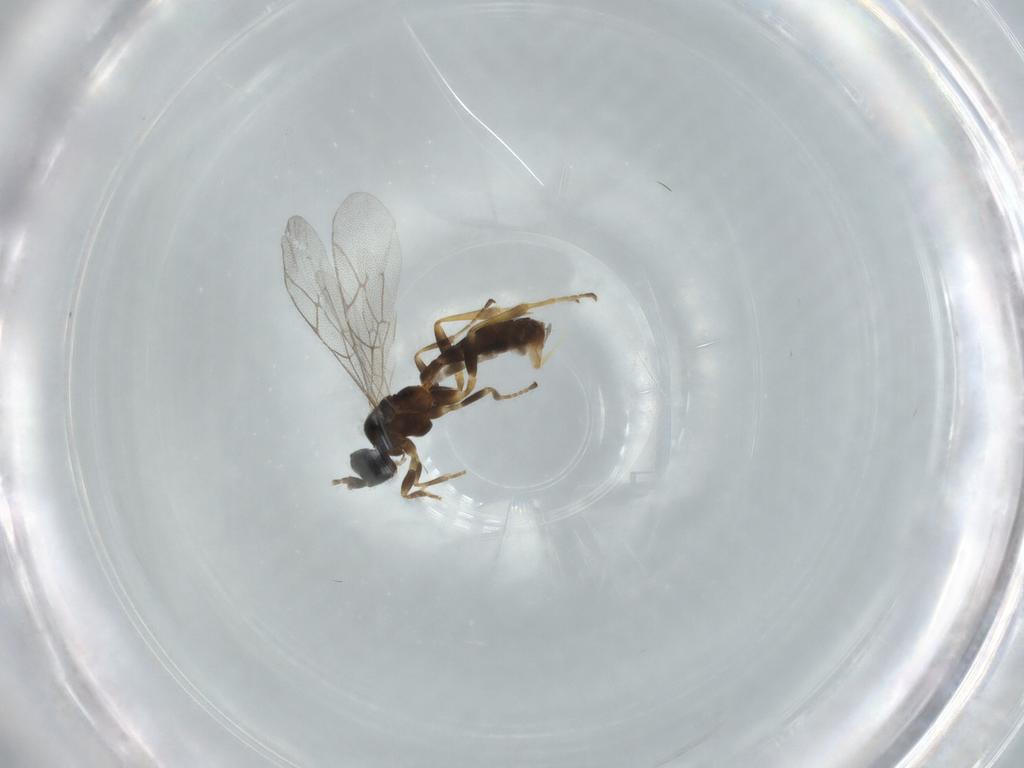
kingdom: Animalia
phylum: Arthropoda
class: Insecta
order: Hymenoptera
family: Ichneumonidae
